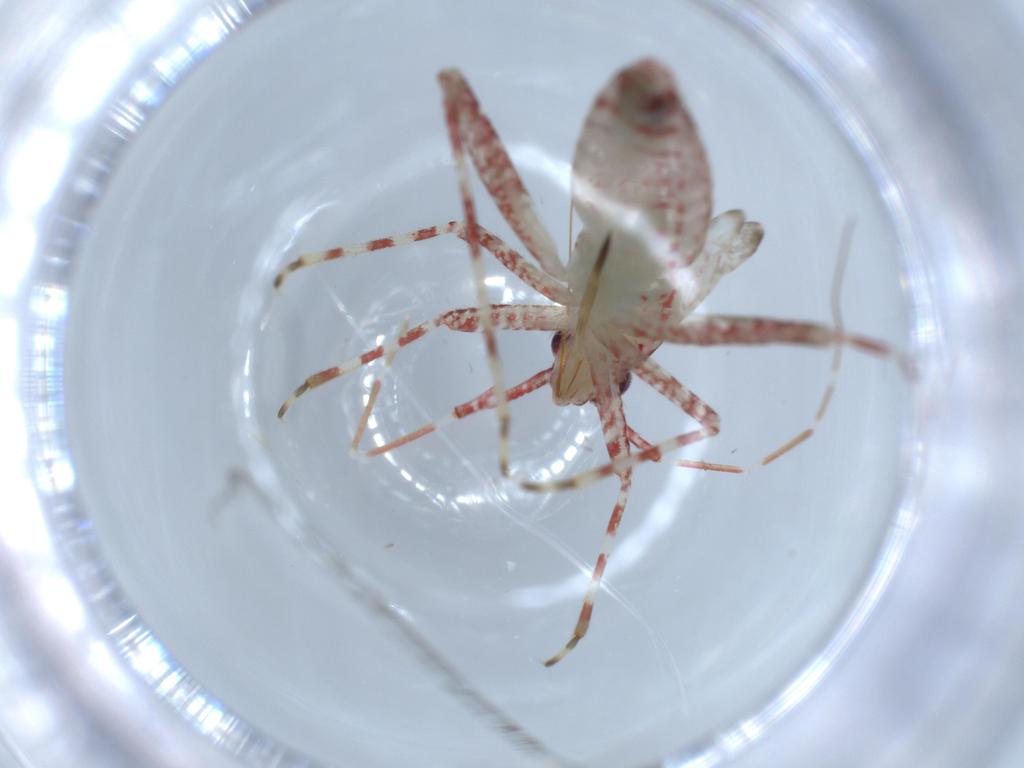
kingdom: Animalia
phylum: Arthropoda
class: Insecta
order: Hemiptera
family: Miridae
